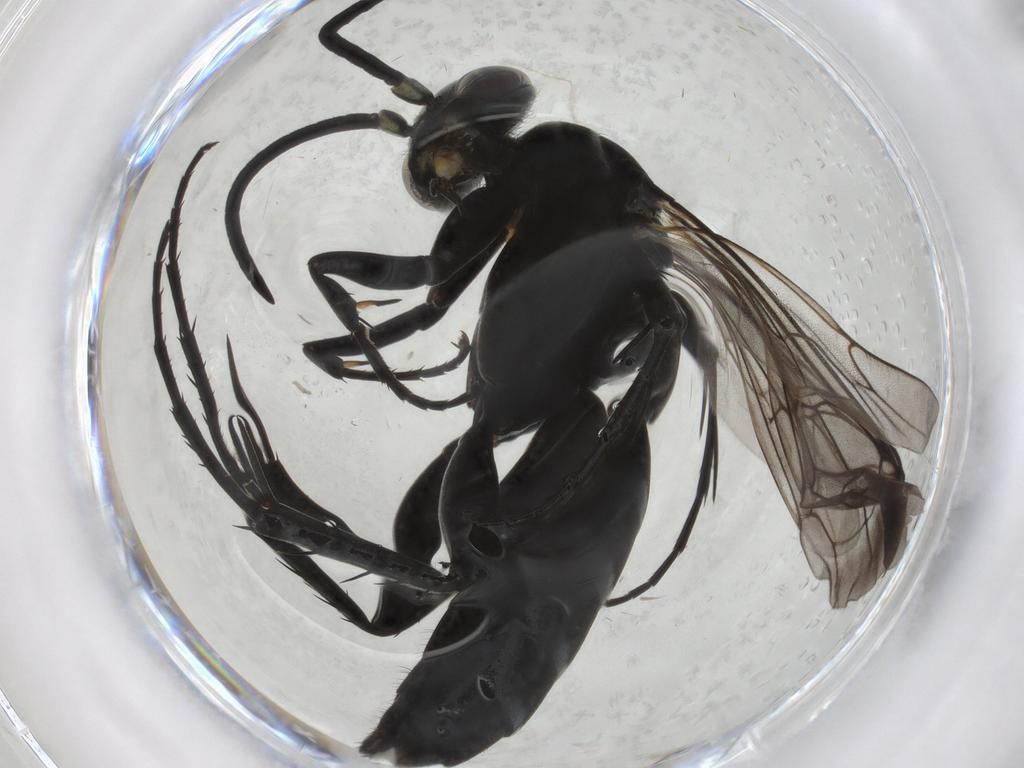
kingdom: Animalia
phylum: Arthropoda
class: Insecta
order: Hymenoptera
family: Pompilidae
